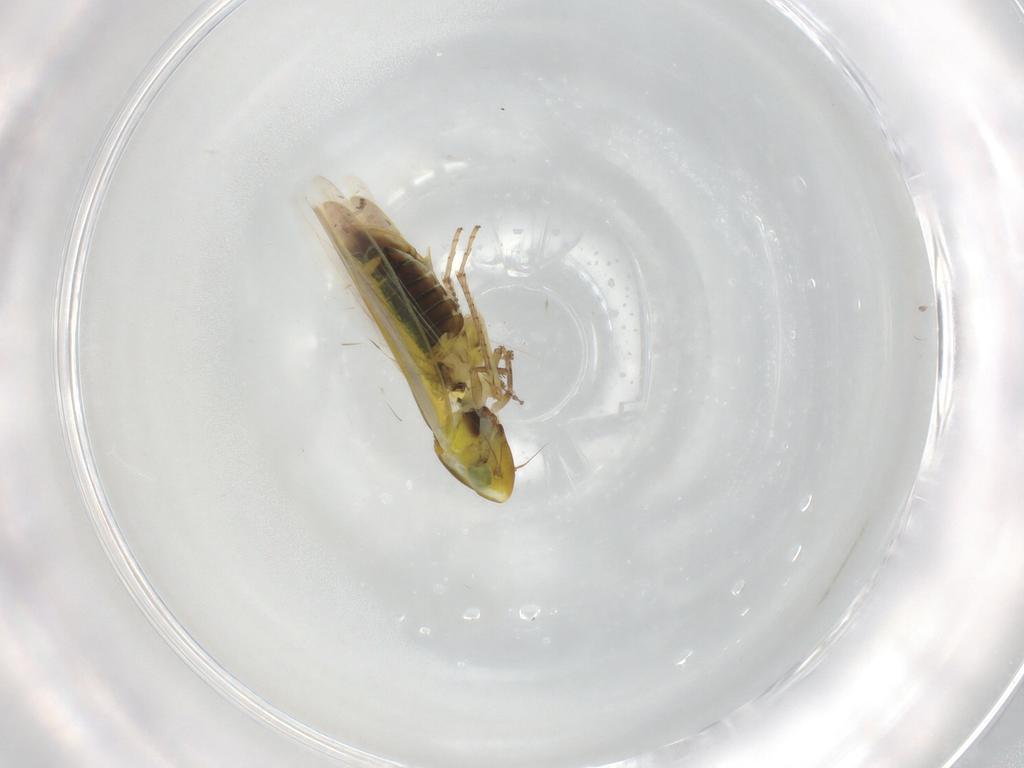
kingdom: Animalia
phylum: Arthropoda
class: Insecta
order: Hemiptera
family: Cicadellidae
